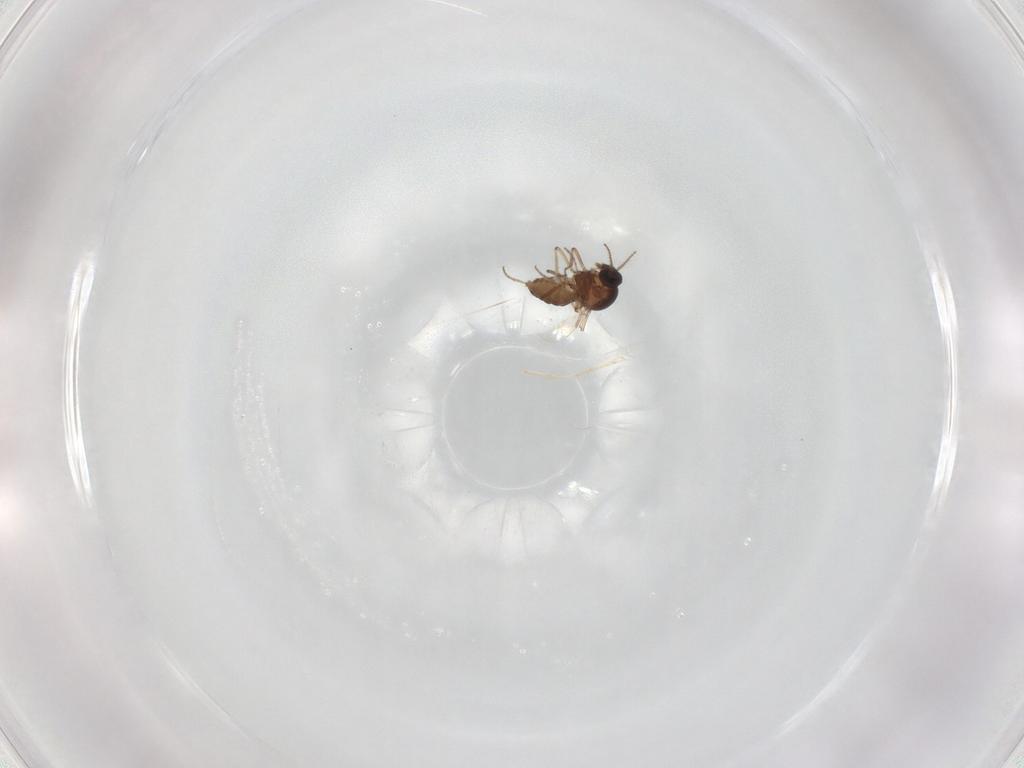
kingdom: Animalia
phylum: Arthropoda
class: Insecta
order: Diptera
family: Ceratopogonidae
